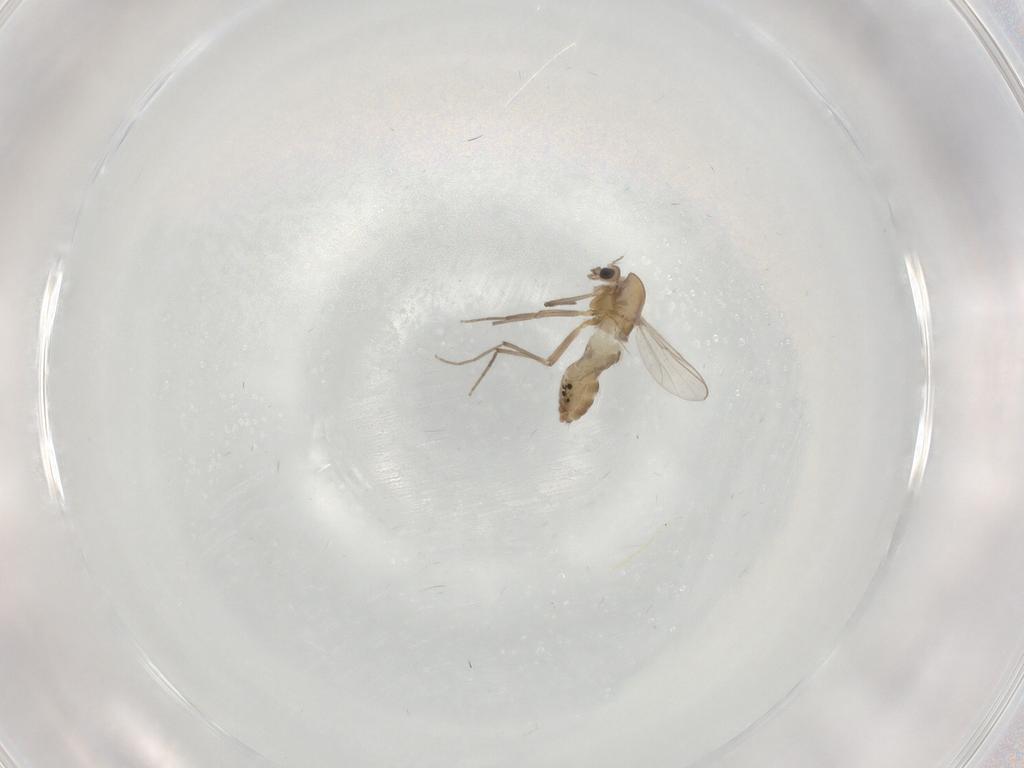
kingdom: Animalia
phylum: Arthropoda
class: Insecta
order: Diptera
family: Chironomidae
